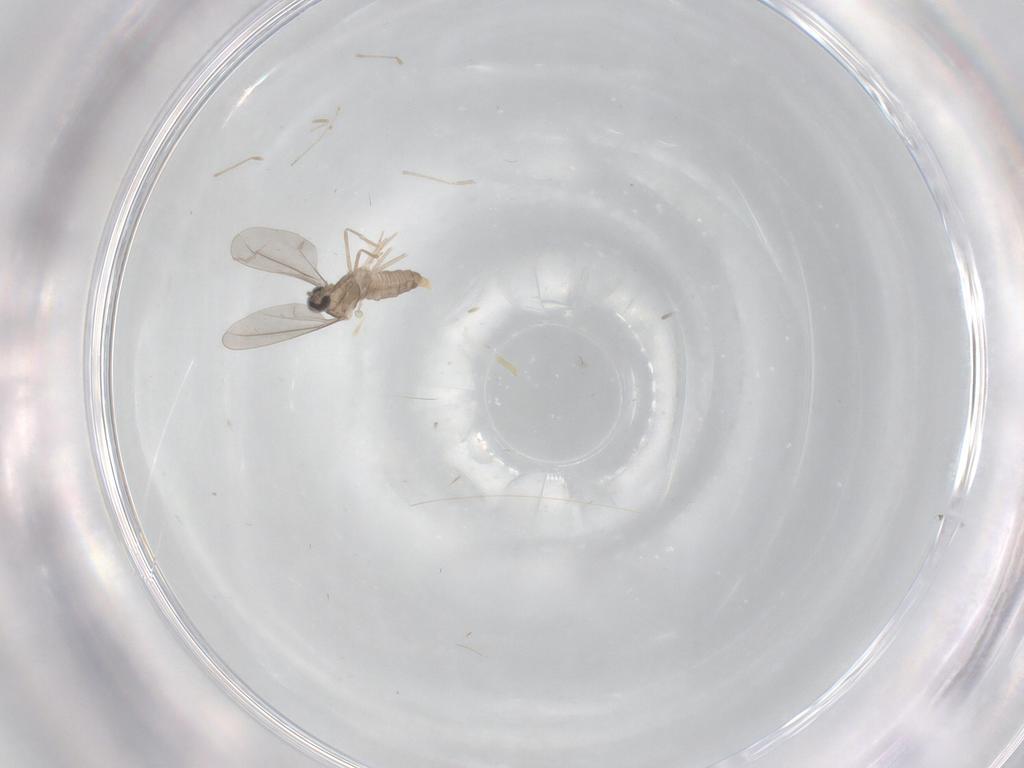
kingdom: Animalia
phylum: Arthropoda
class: Insecta
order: Diptera
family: Cecidomyiidae
